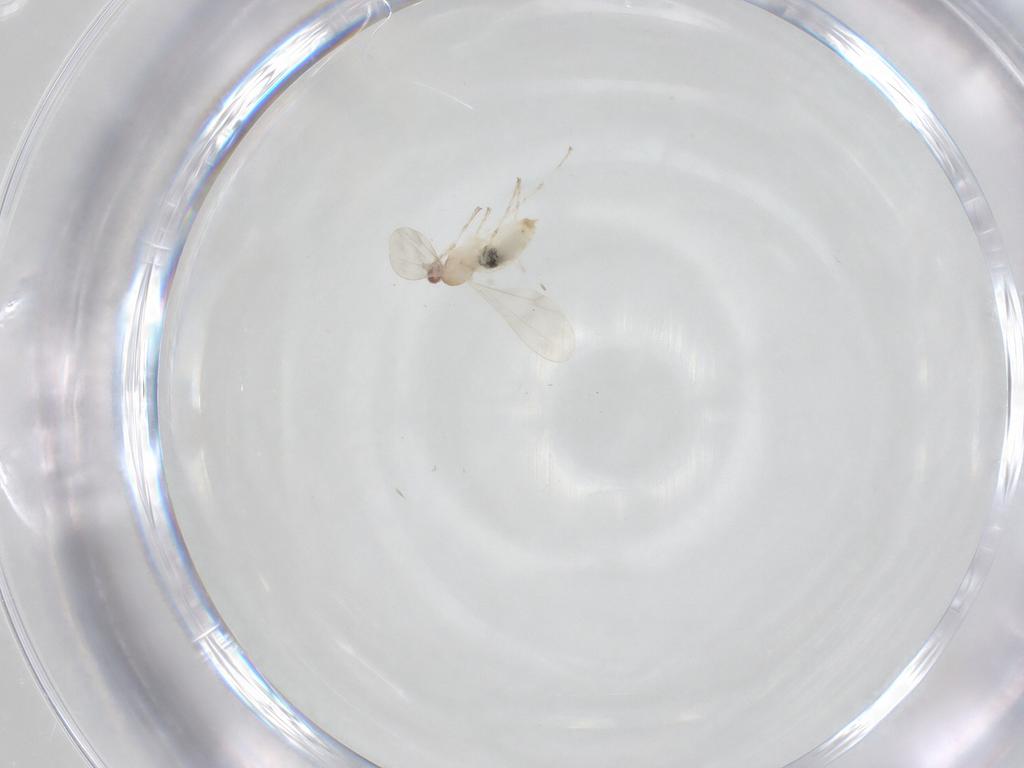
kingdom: Animalia
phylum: Arthropoda
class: Insecta
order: Diptera
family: Cecidomyiidae
